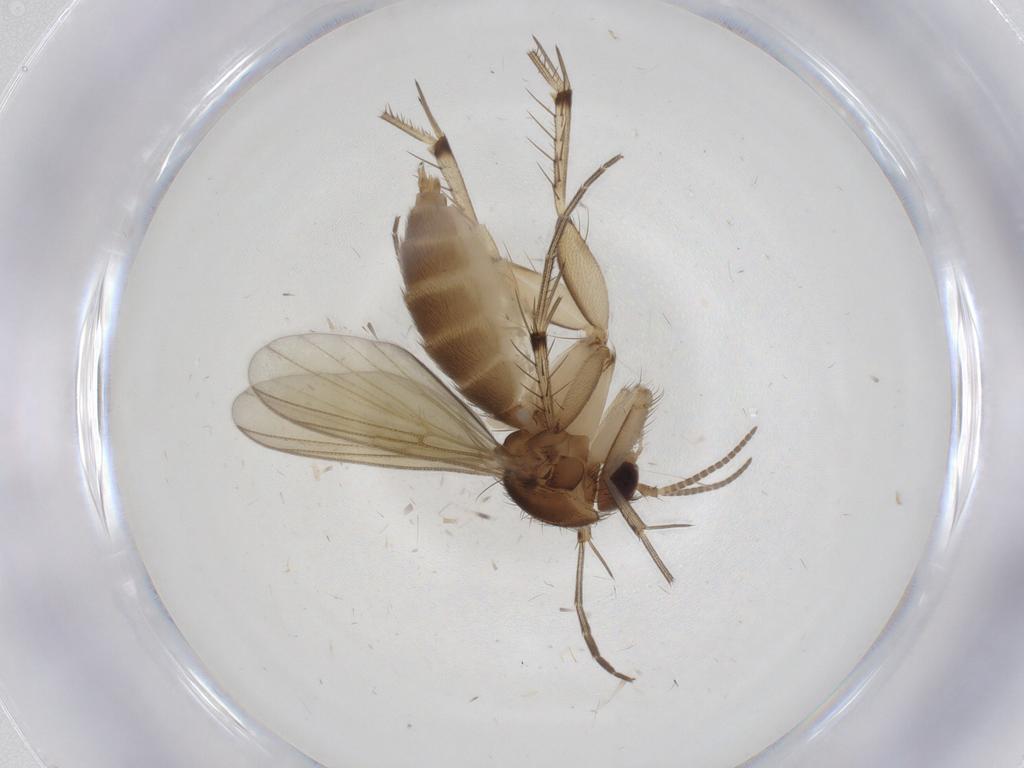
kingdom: Animalia
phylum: Arthropoda
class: Insecta
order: Diptera
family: Mycetophilidae
